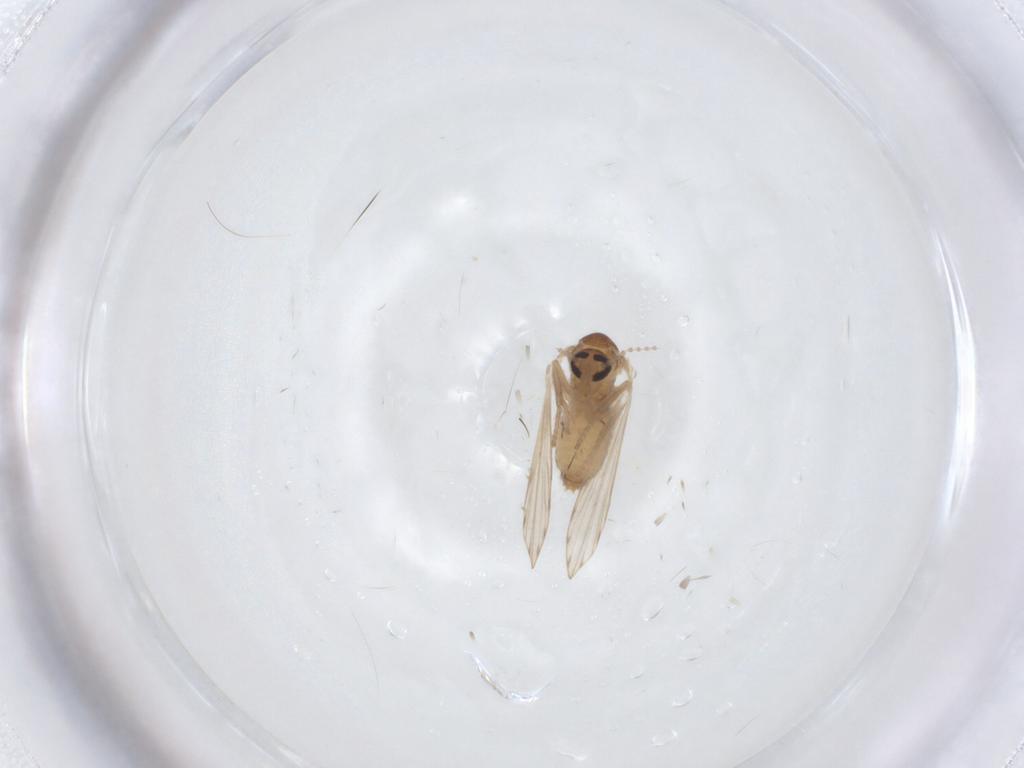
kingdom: Animalia
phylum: Arthropoda
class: Insecta
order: Diptera
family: Psychodidae
